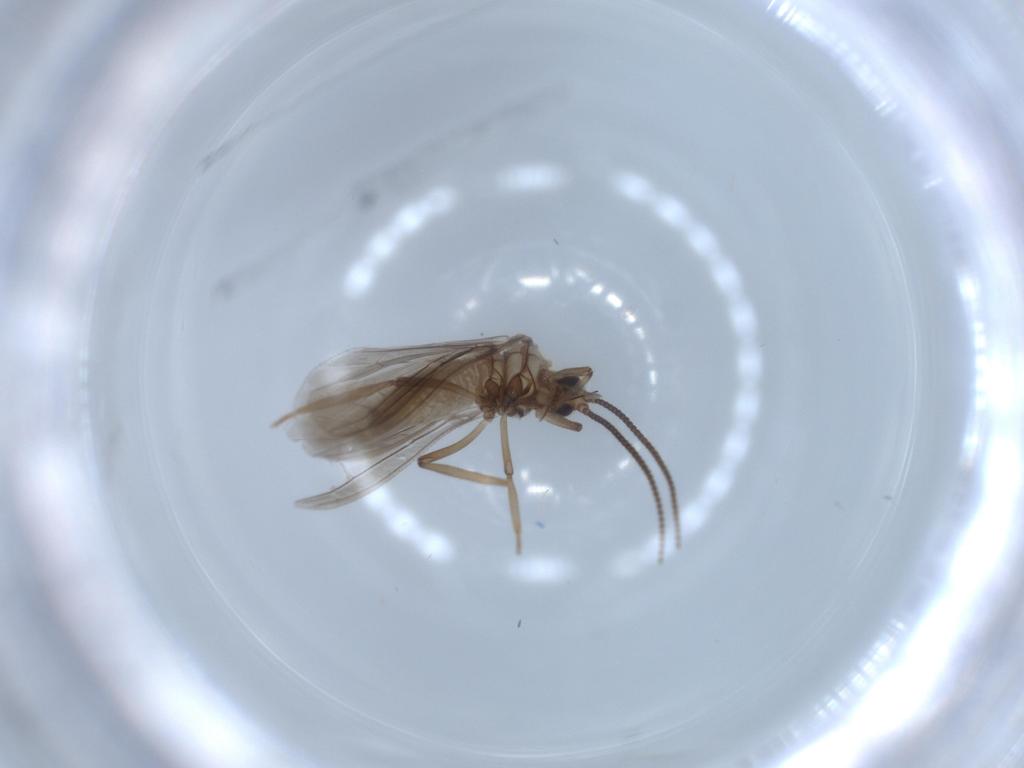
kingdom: Animalia
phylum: Arthropoda
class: Insecta
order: Neuroptera
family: Coniopterygidae
